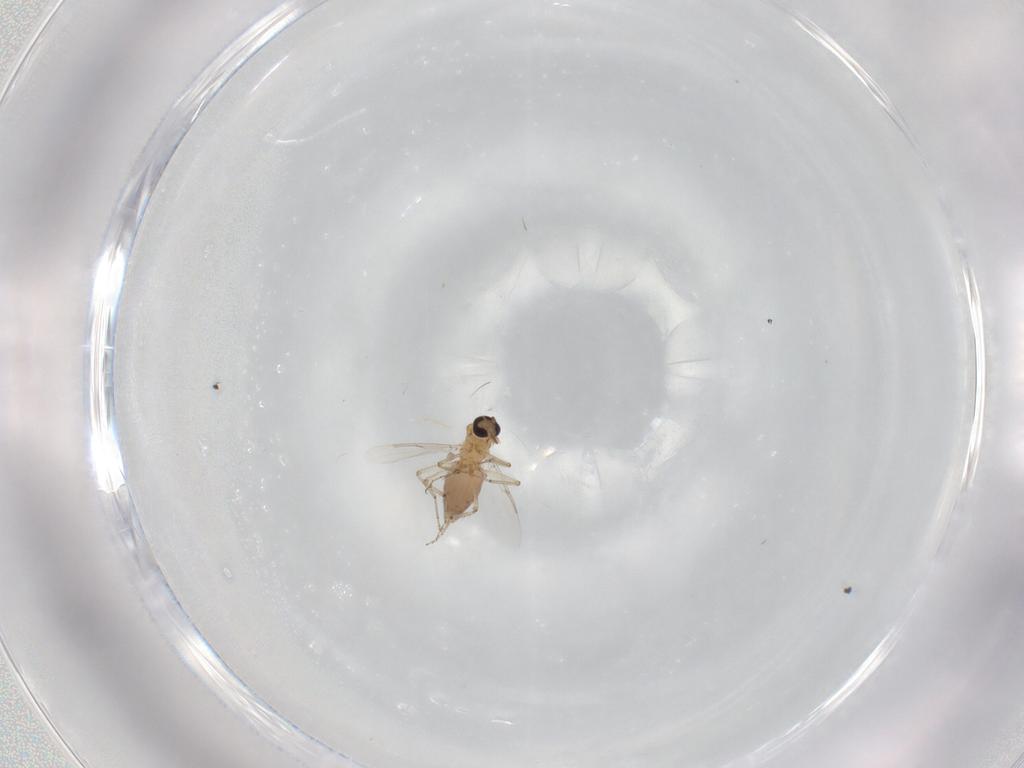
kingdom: Animalia
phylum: Arthropoda
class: Insecta
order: Diptera
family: Ceratopogonidae
